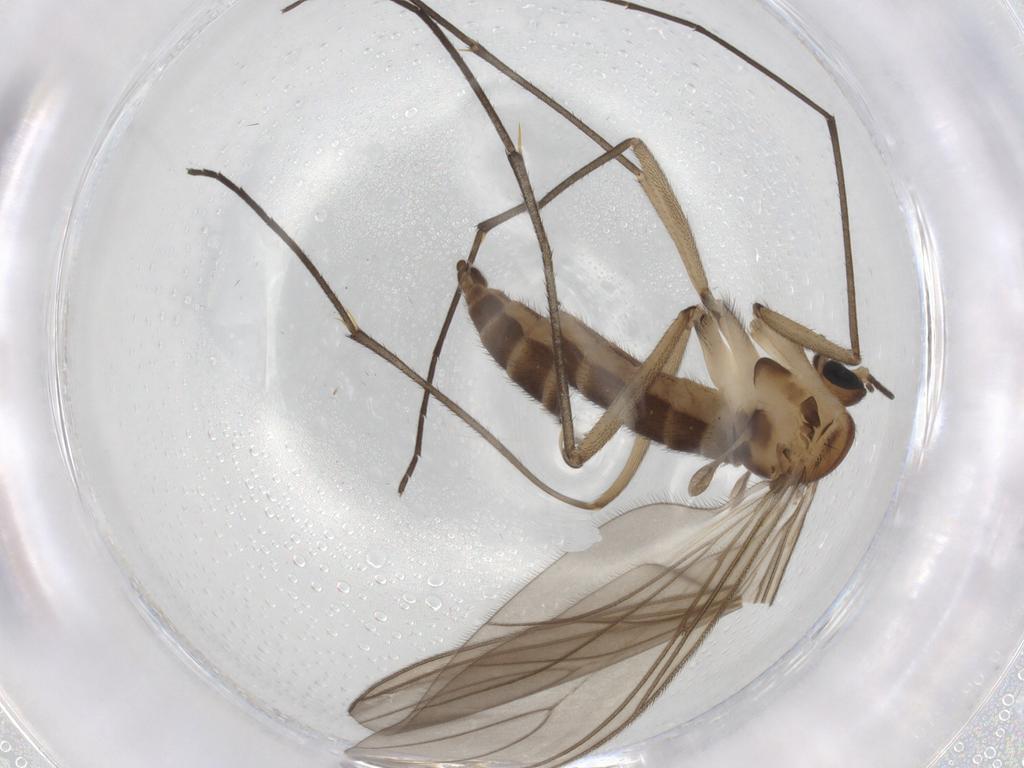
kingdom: Animalia
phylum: Arthropoda
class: Insecta
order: Diptera
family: Sciaridae
